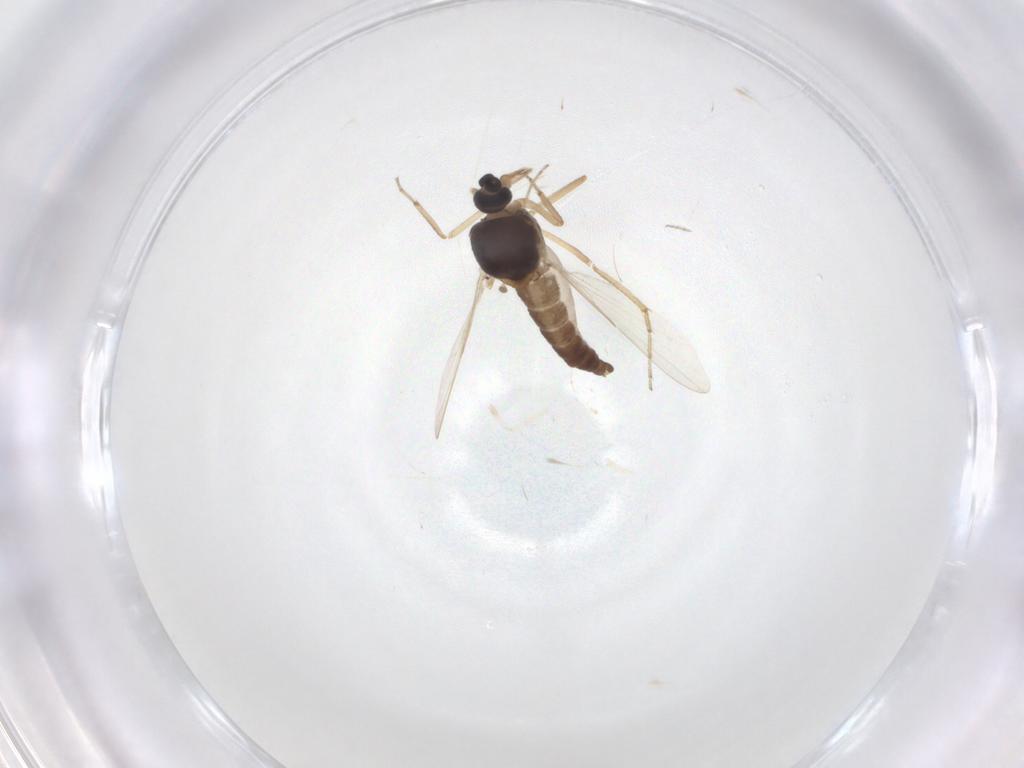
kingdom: Animalia
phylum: Arthropoda
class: Insecta
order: Diptera
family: Ceratopogonidae
